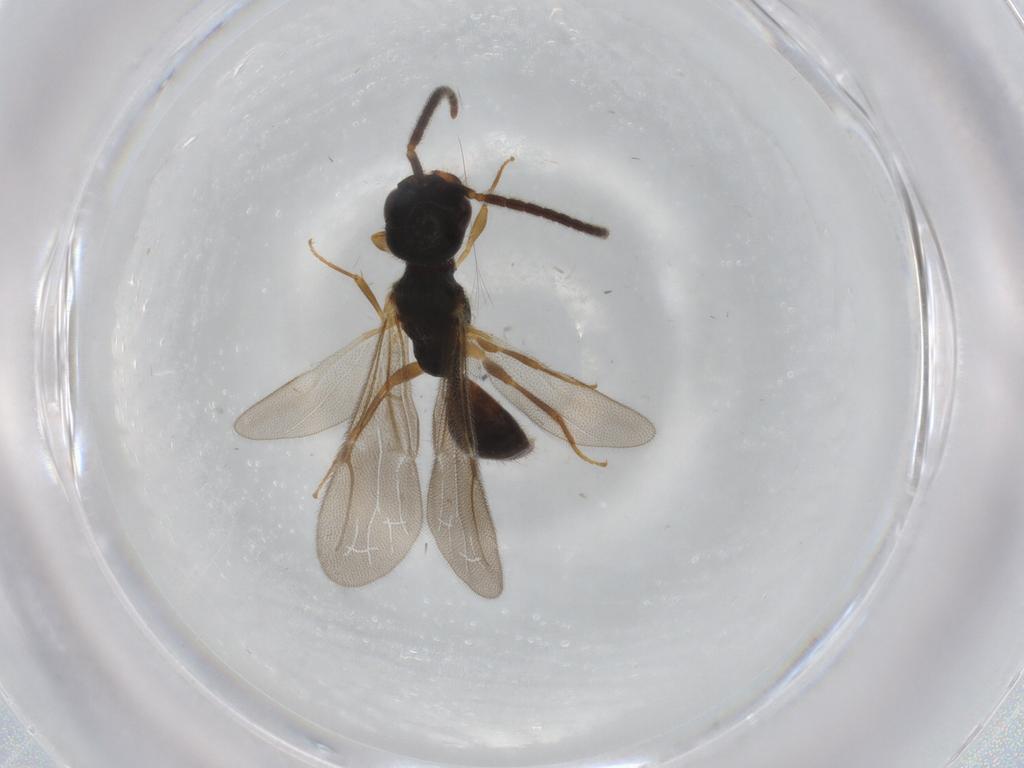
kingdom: Animalia
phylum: Arthropoda
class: Insecta
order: Hymenoptera
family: Bethylidae
